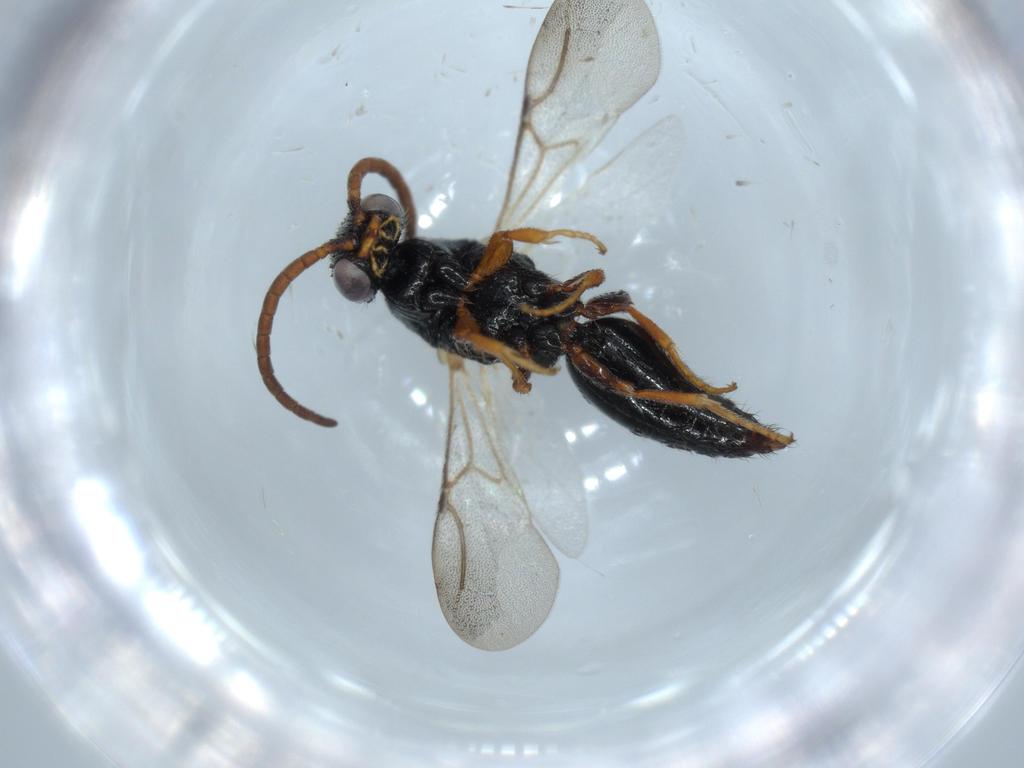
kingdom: Animalia
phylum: Arthropoda
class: Insecta
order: Hymenoptera
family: Bethylidae
